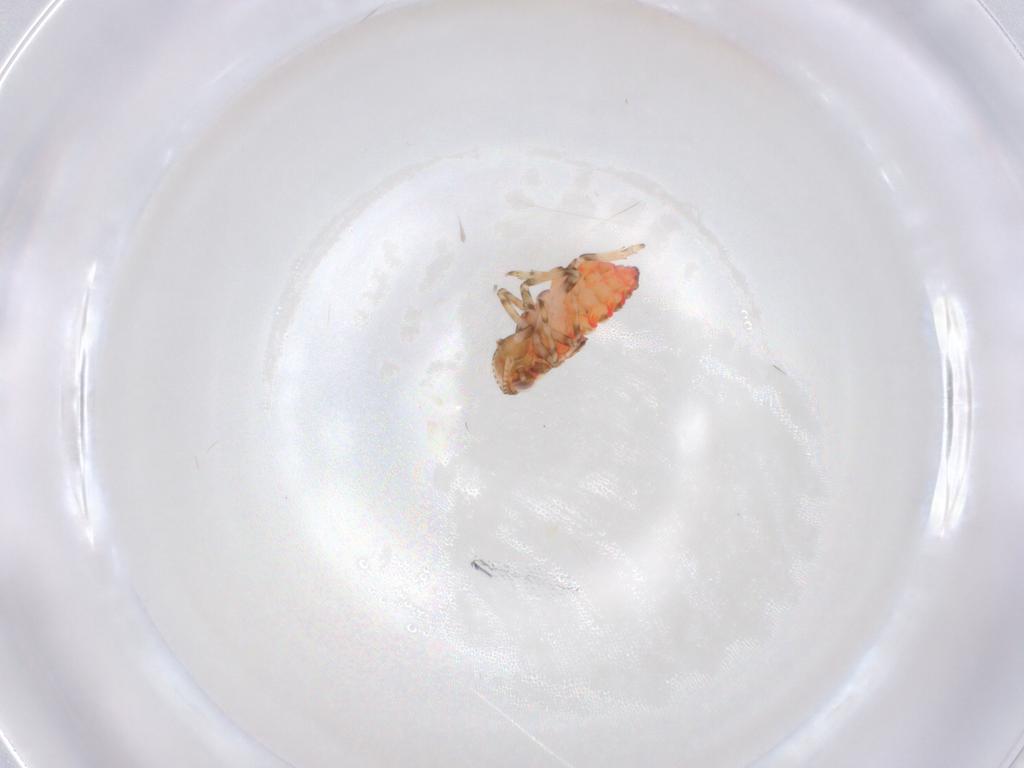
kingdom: Animalia
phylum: Arthropoda
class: Insecta
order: Hemiptera
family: Tropiduchidae
